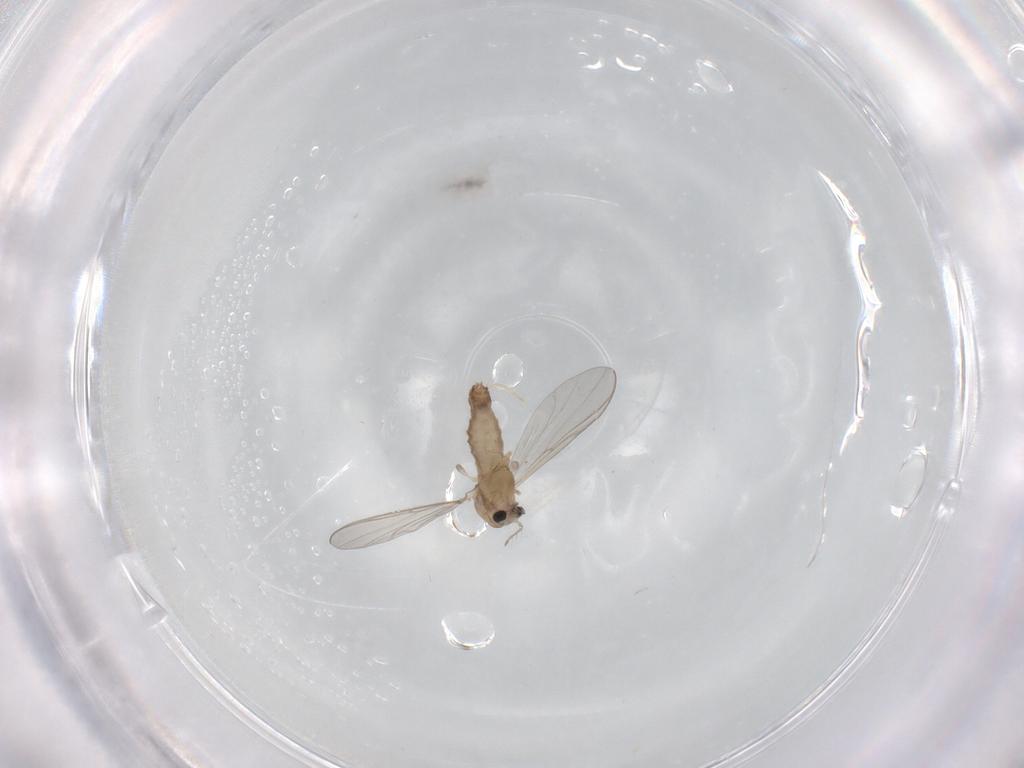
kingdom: Animalia
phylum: Arthropoda
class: Insecta
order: Diptera
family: Chironomidae
